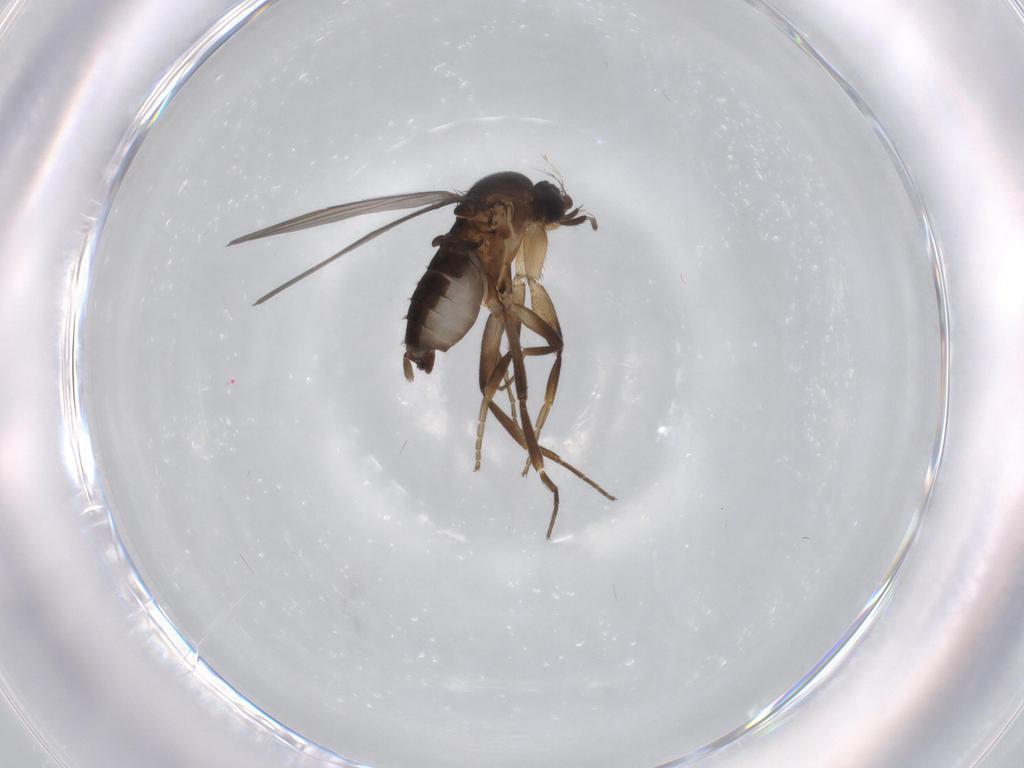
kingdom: Animalia
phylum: Arthropoda
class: Insecta
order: Diptera
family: Phoridae
